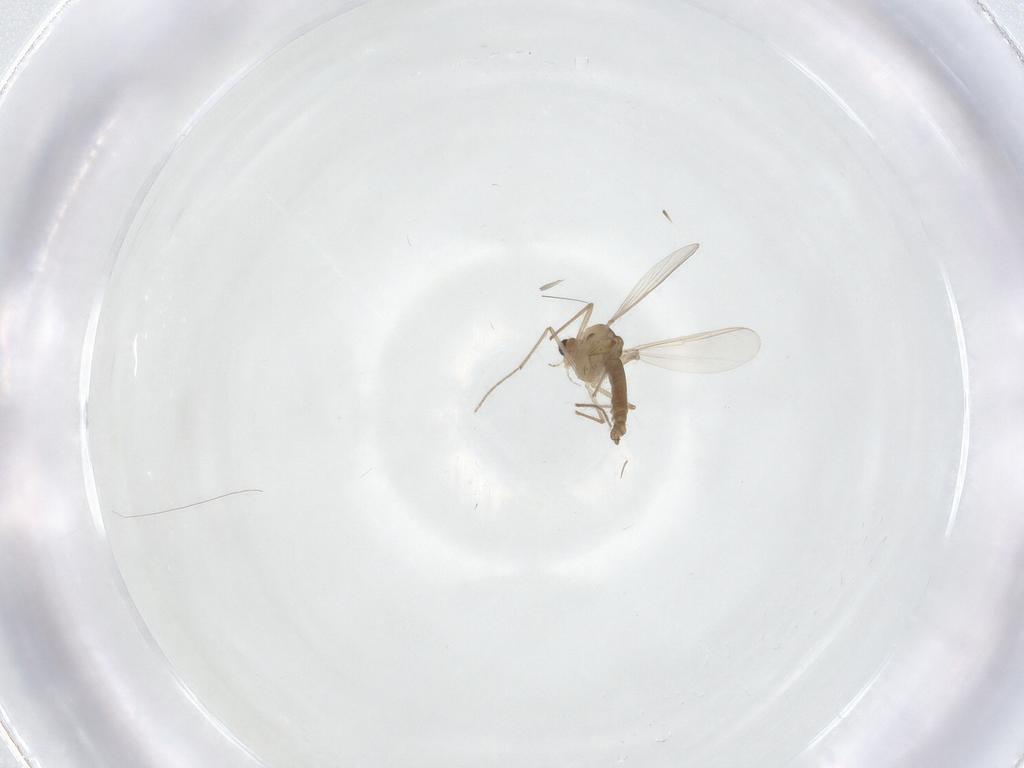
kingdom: Animalia
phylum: Arthropoda
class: Insecta
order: Diptera
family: Chironomidae
